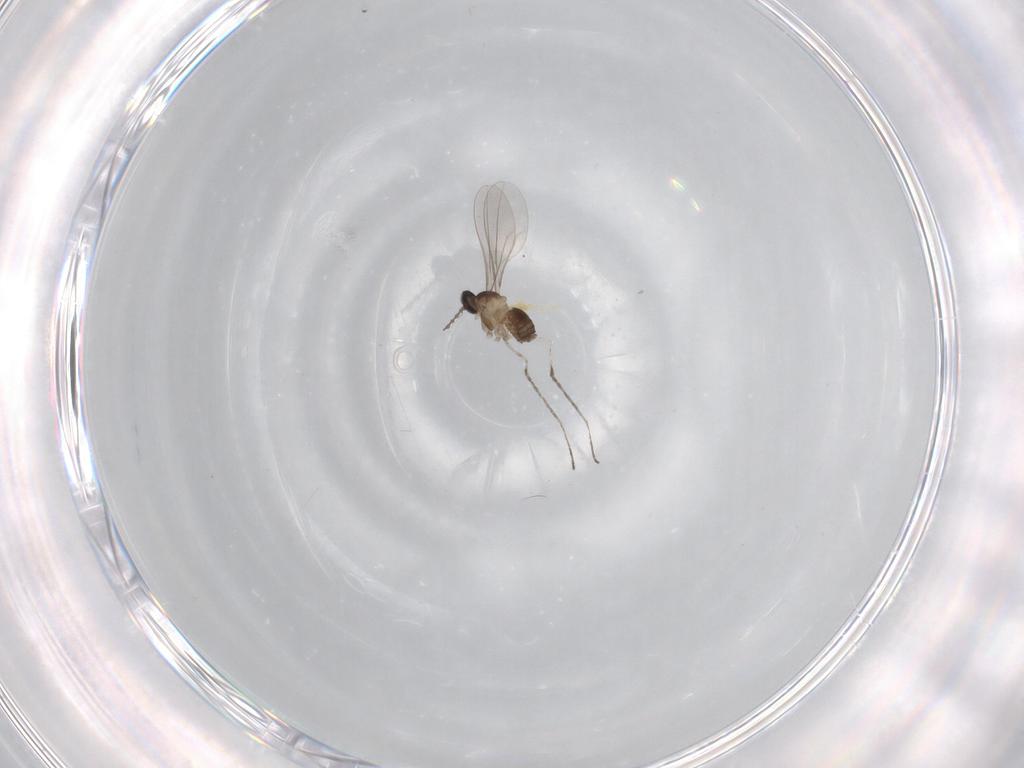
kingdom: Animalia
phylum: Arthropoda
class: Insecta
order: Diptera
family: Cecidomyiidae
